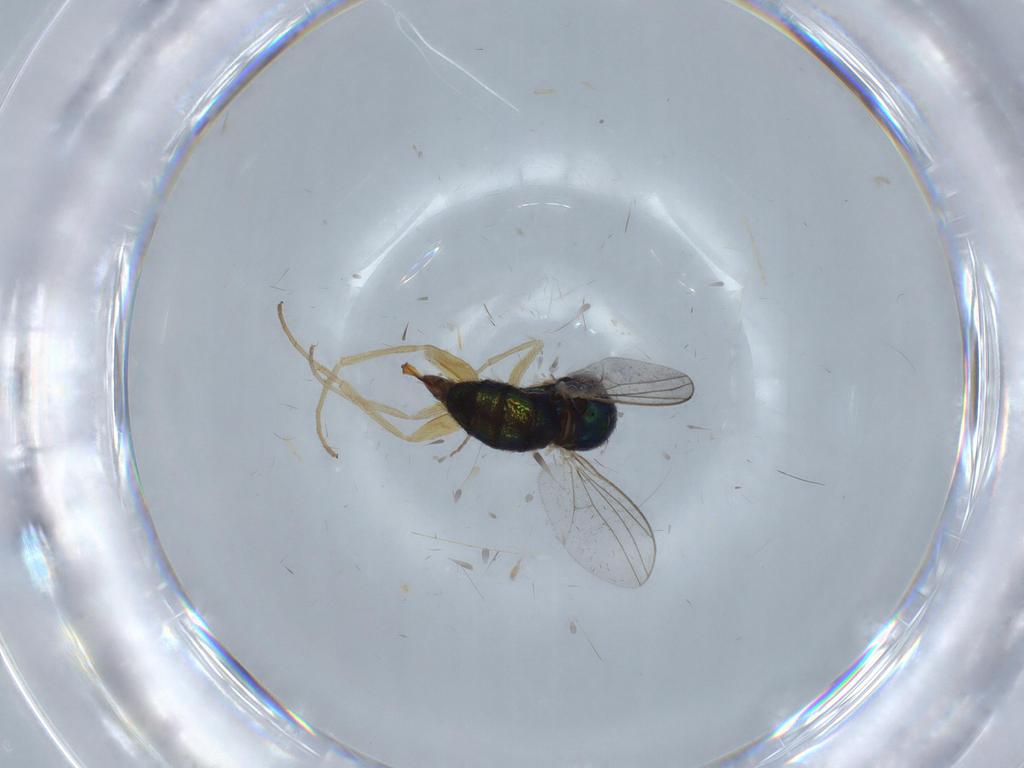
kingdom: Animalia
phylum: Arthropoda
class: Insecta
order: Diptera
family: Dolichopodidae
